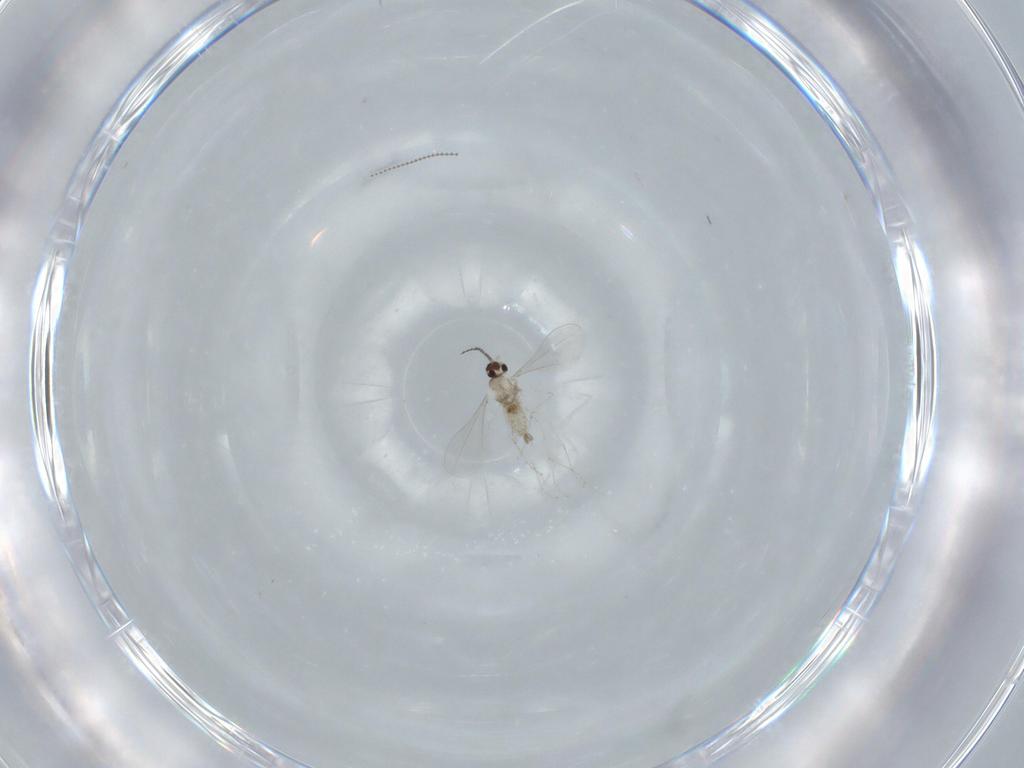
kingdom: Animalia
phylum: Arthropoda
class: Insecta
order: Diptera
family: Cecidomyiidae
